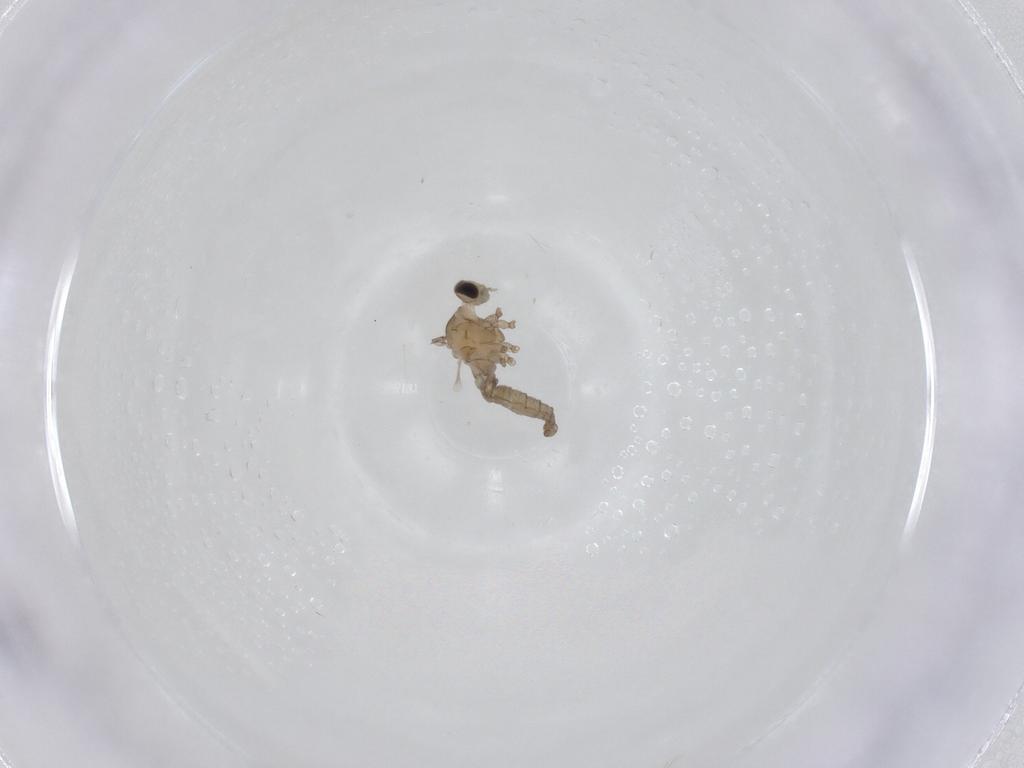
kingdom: Animalia
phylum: Arthropoda
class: Insecta
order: Diptera
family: Cecidomyiidae
